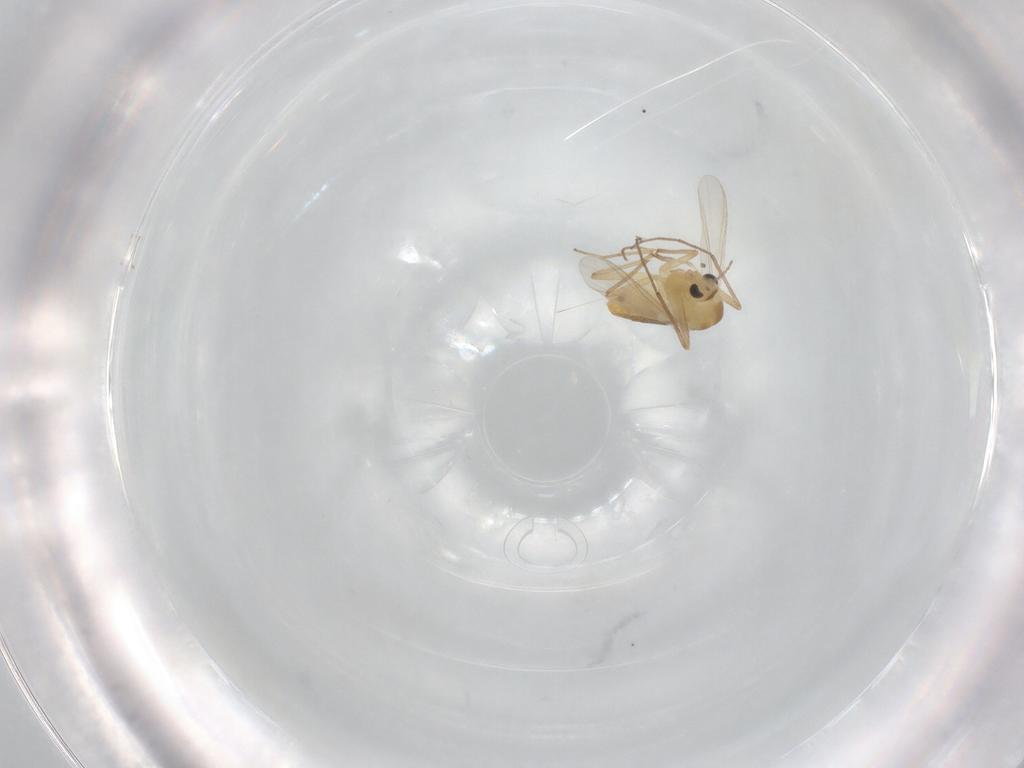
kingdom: Animalia
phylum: Arthropoda
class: Insecta
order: Diptera
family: Chironomidae
